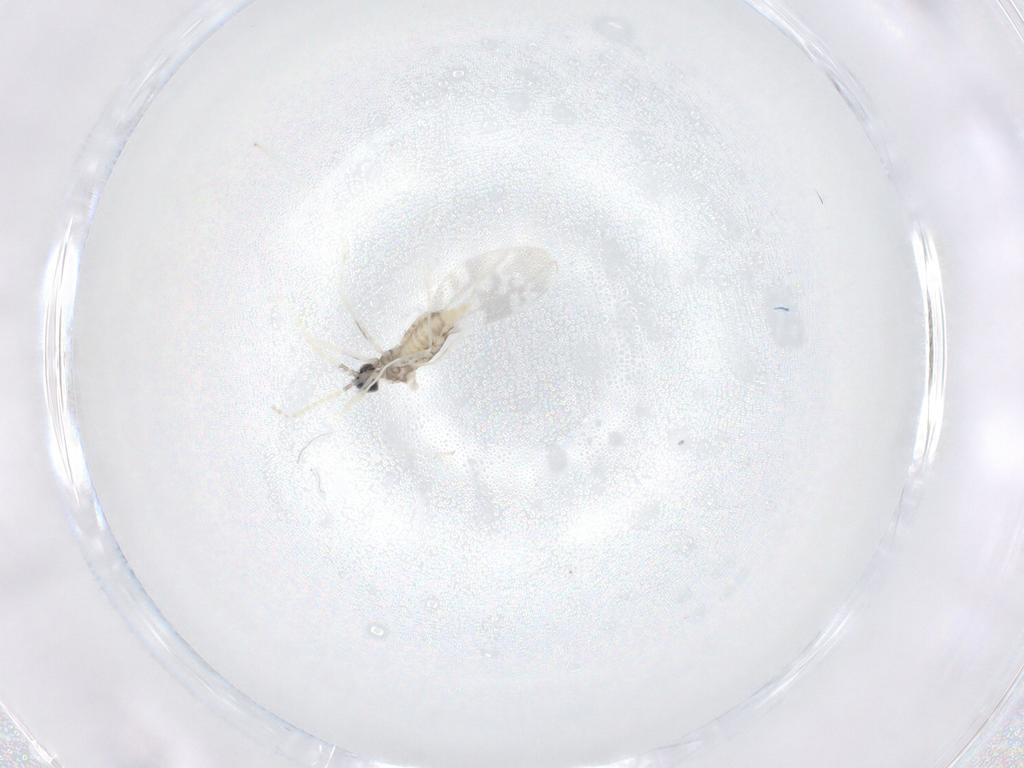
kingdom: Animalia
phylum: Arthropoda
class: Insecta
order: Diptera
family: Cecidomyiidae
